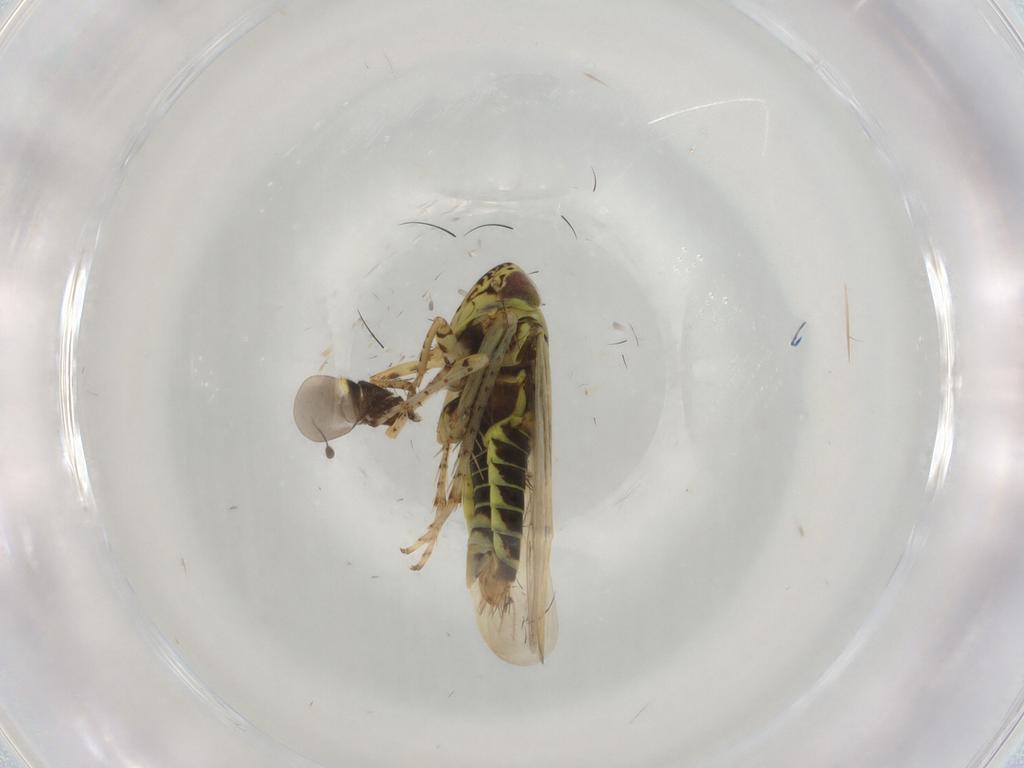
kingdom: Animalia
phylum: Arthropoda
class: Insecta
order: Hemiptera
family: Cicadellidae
